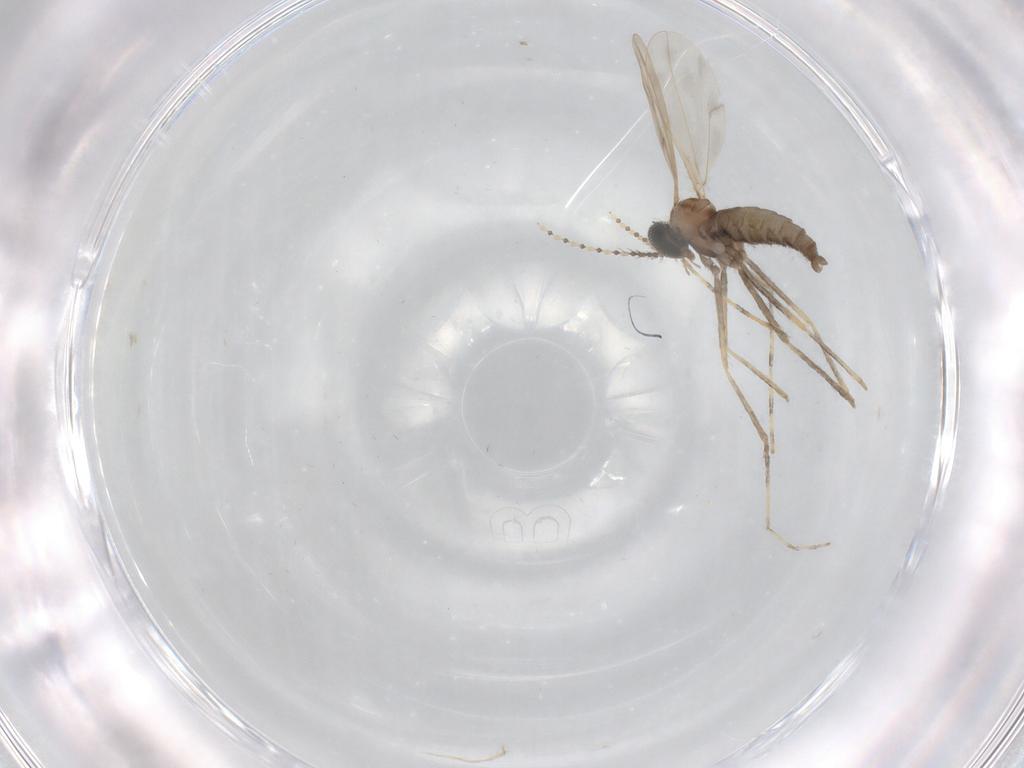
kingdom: Animalia
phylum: Arthropoda
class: Insecta
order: Diptera
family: Cecidomyiidae
